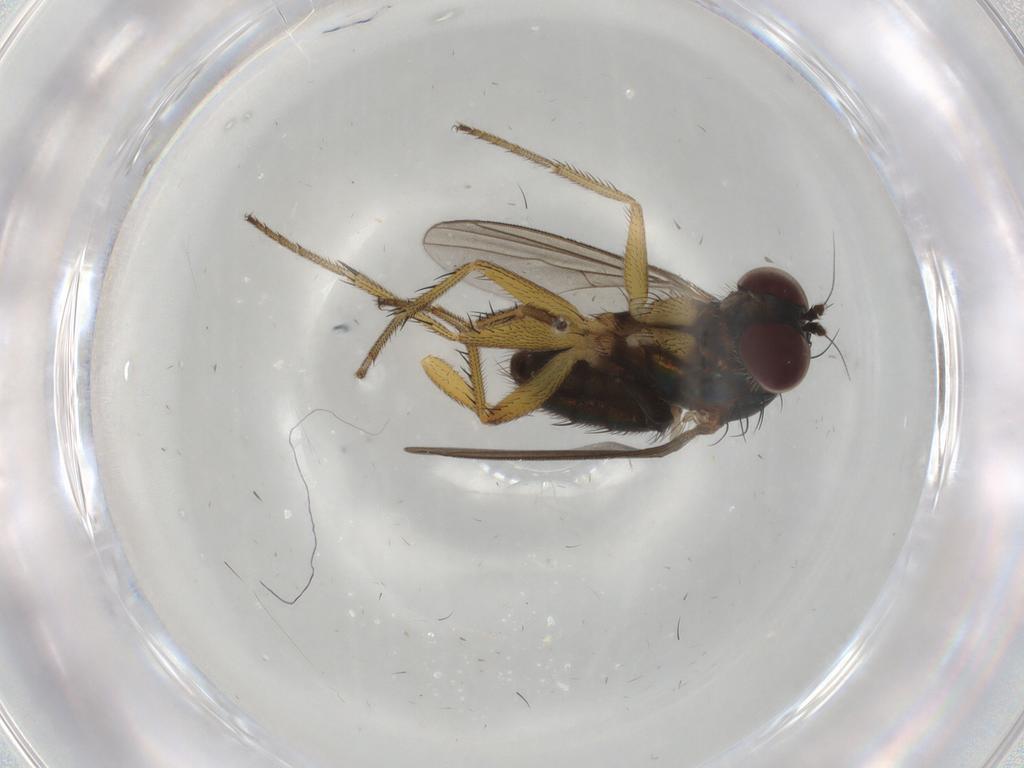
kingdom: Animalia
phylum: Arthropoda
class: Insecta
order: Diptera
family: Dolichopodidae
